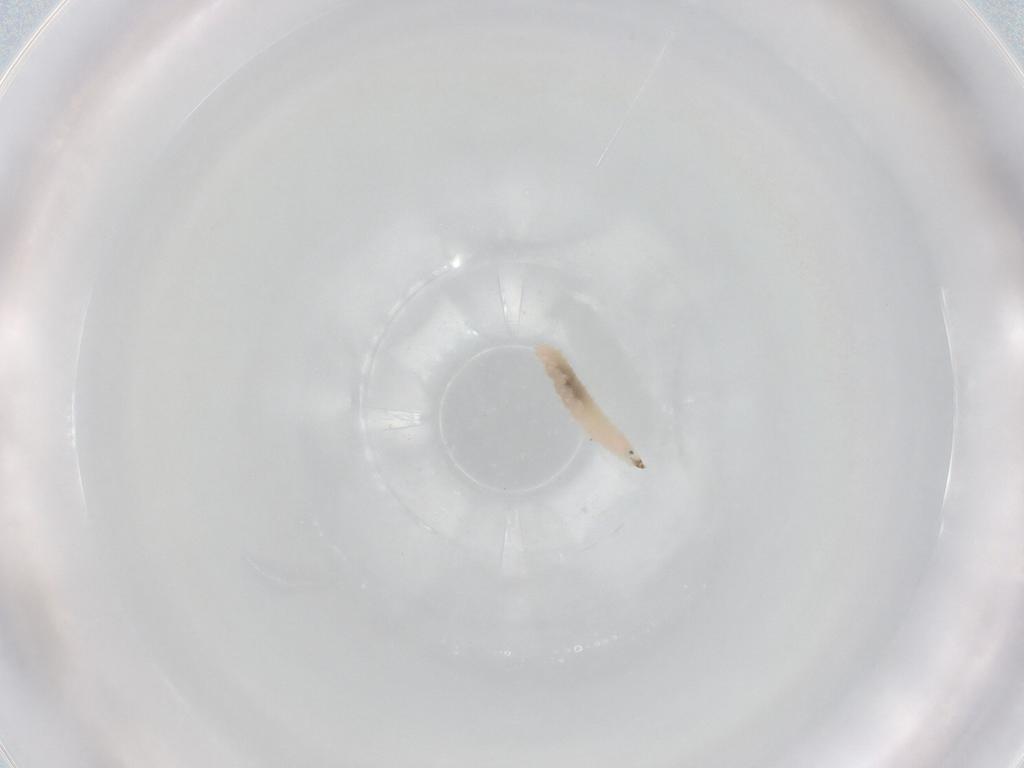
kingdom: Animalia
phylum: Arthropoda
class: Insecta
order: Diptera
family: Cecidomyiidae
